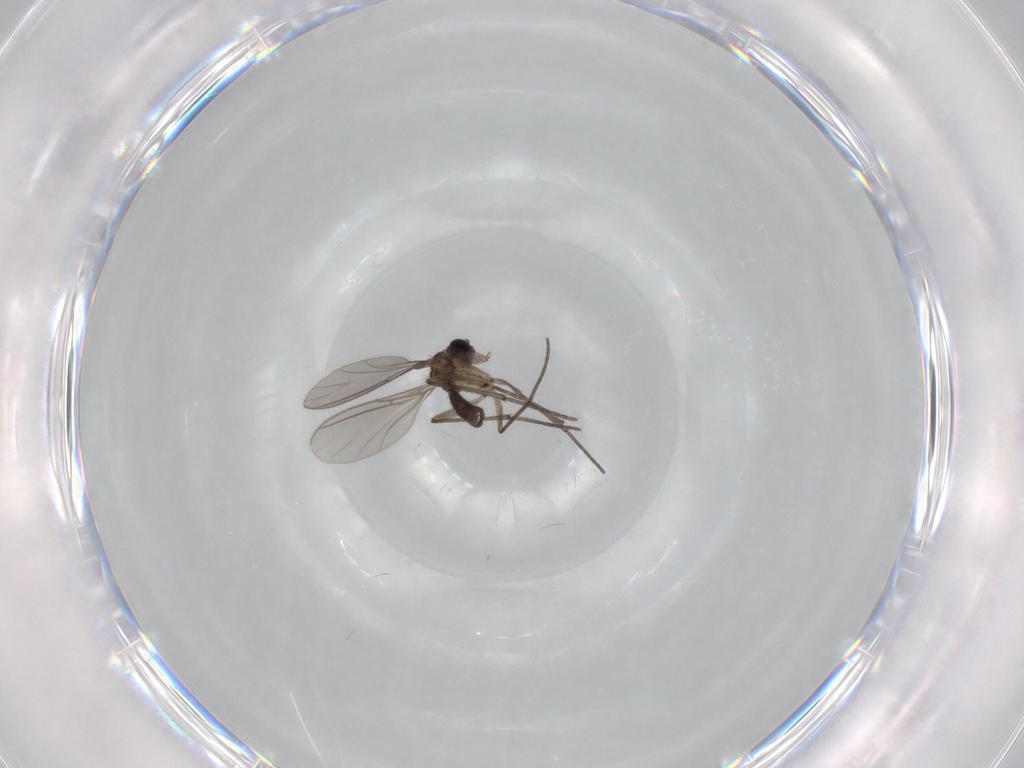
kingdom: Animalia
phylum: Arthropoda
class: Insecta
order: Diptera
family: Sciaridae
